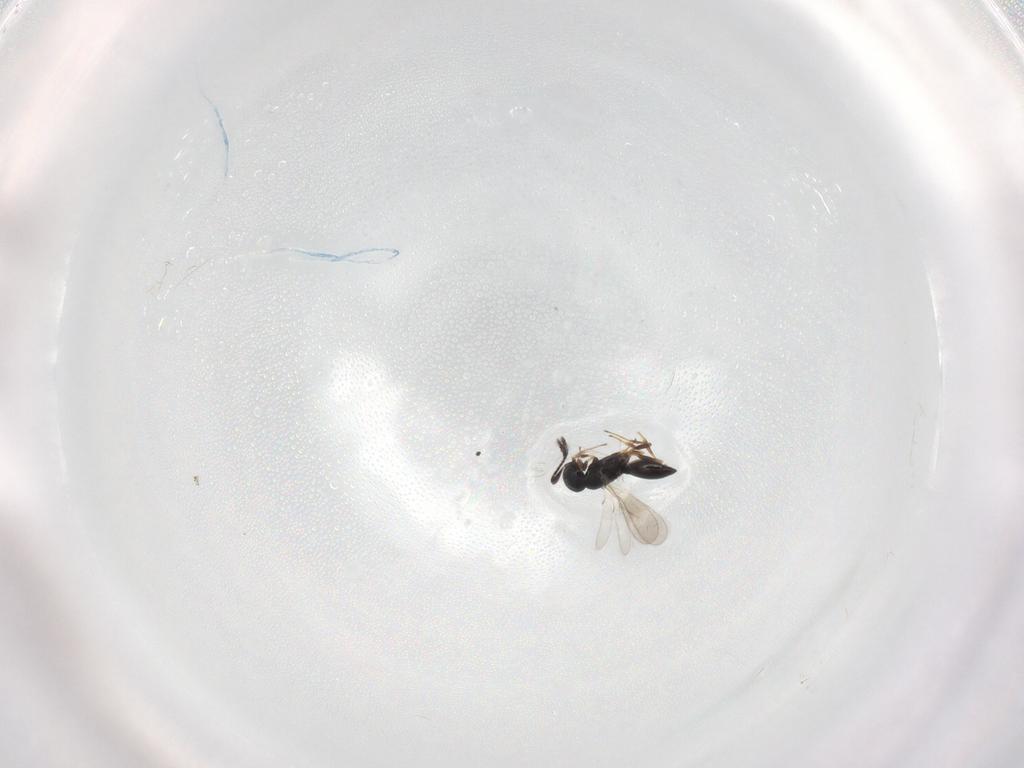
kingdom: Animalia
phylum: Arthropoda
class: Insecta
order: Hymenoptera
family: Scelionidae
